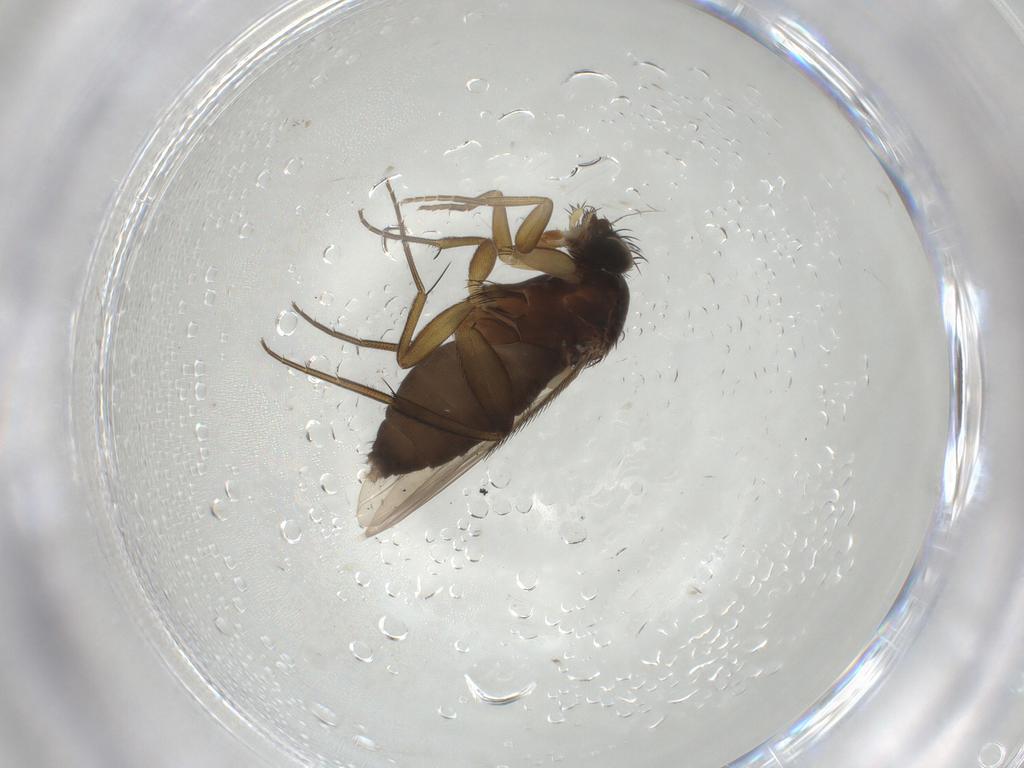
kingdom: Animalia
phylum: Arthropoda
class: Insecta
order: Diptera
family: Phoridae
